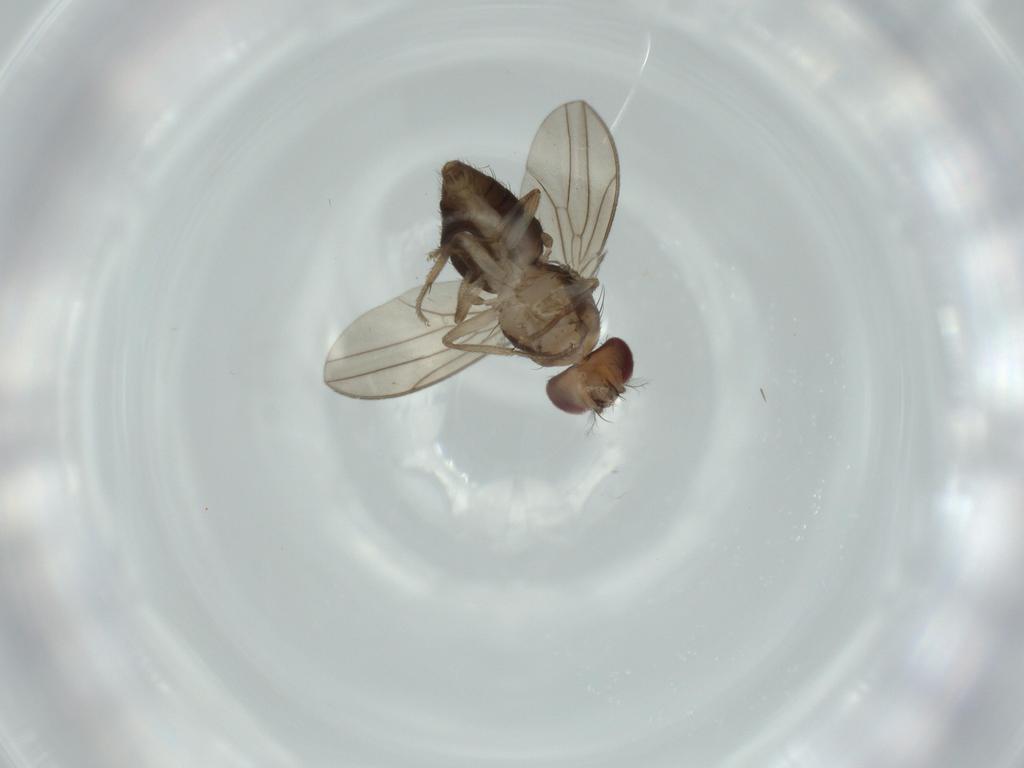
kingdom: Animalia
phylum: Arthropoda
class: Insecta
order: Diptera
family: Drosophilidae
